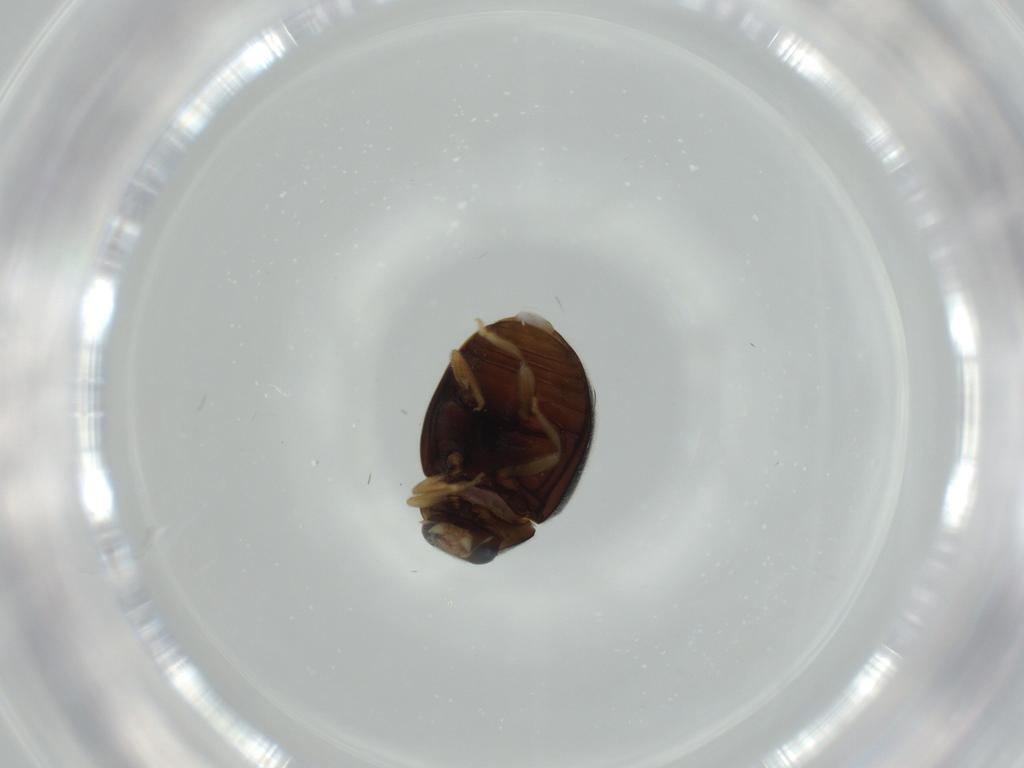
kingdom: Animalia
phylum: Arthropoda
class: Insecta
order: Coleoptera
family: Coccinellidae
